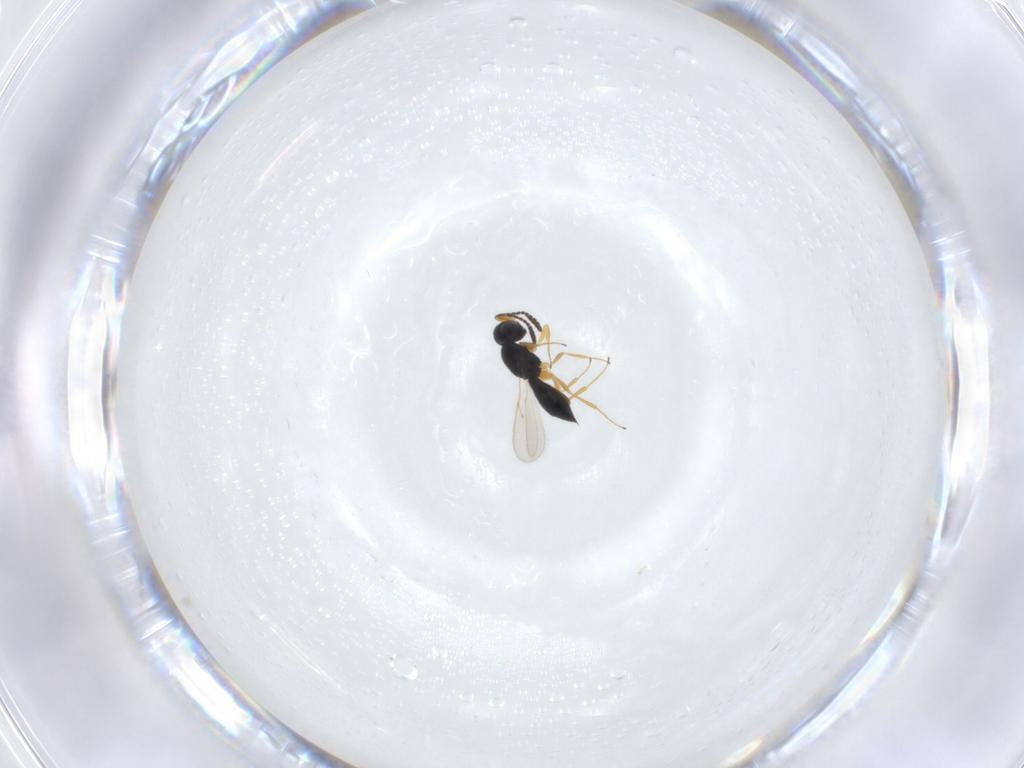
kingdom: Animalia
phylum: Arthropoda
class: Insecta
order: Hymenoptera
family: Scelionidae
